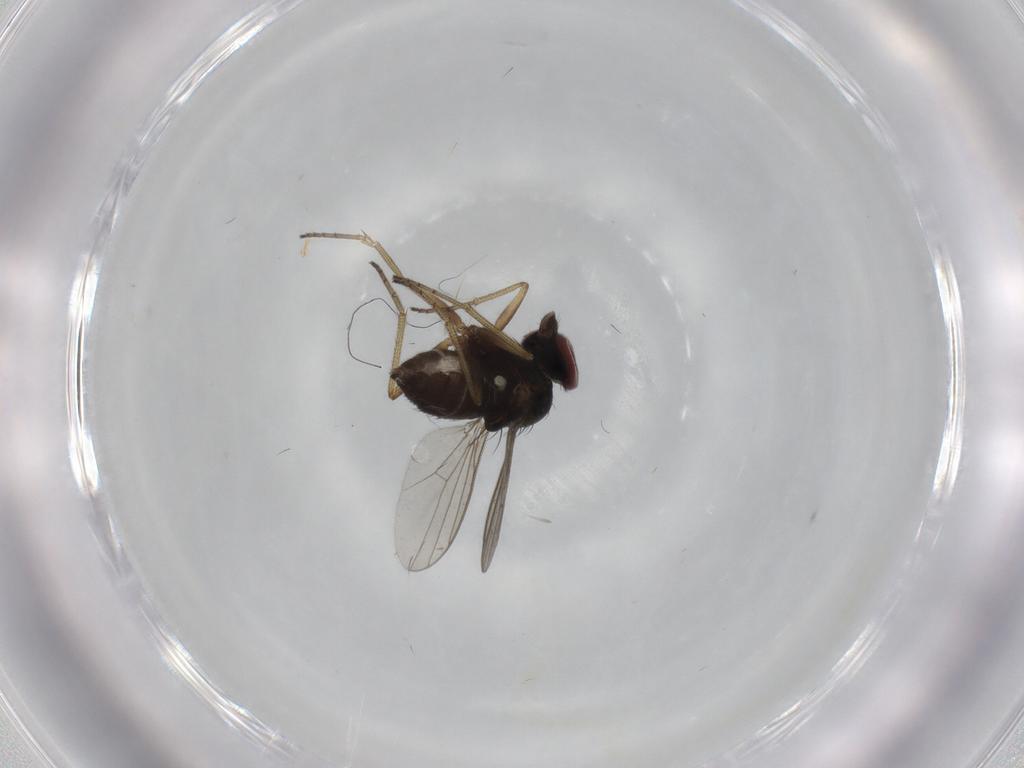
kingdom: Animalia
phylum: Arthropoda
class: Insecta
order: Diptera
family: Dolichopodidae
